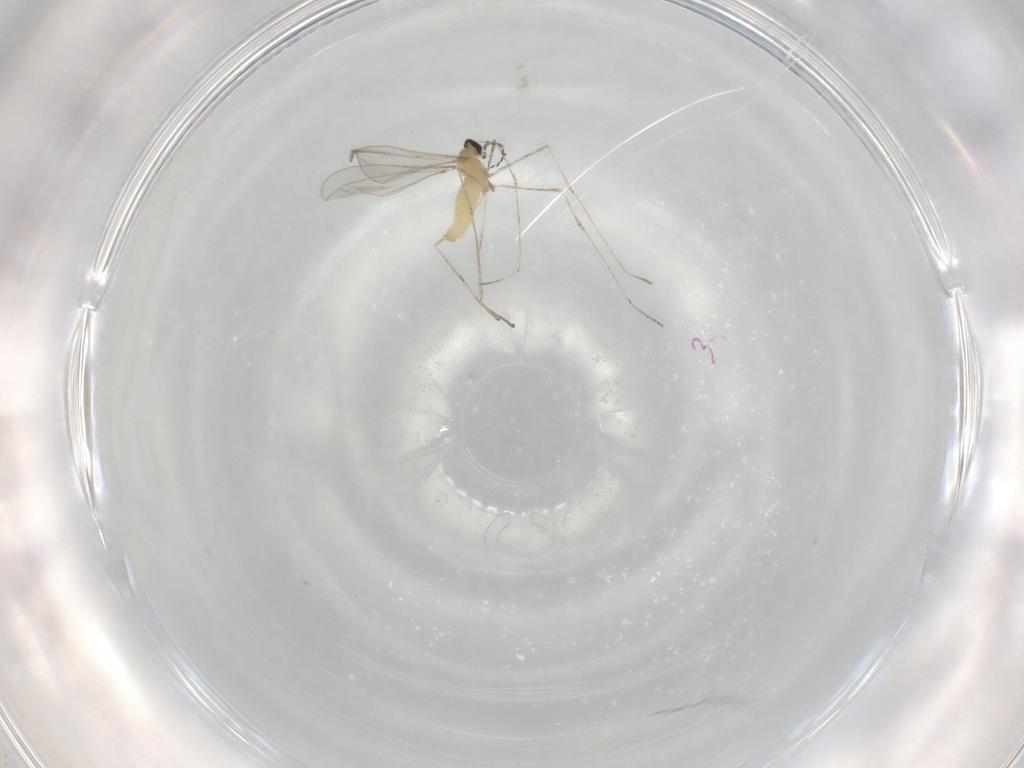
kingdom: Animalia
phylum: Arthropoda
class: Insecta
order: Diptera
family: Cecidomyiidae
